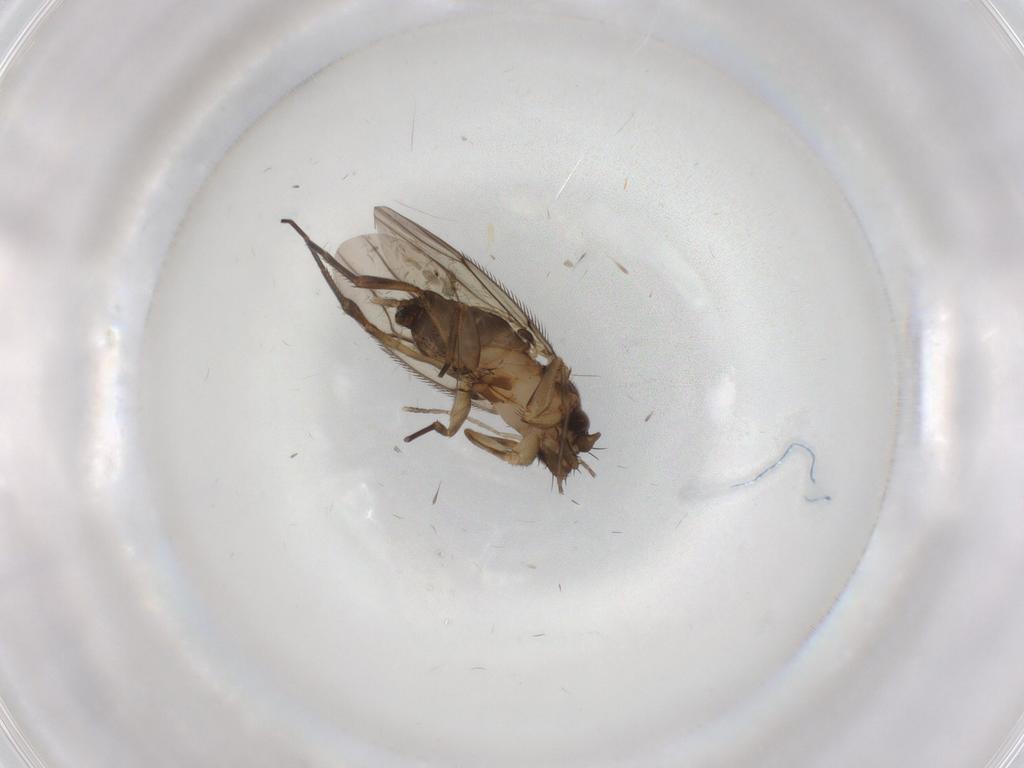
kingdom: Animalia
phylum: Arthropoda
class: Insecta
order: Diptera
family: Phoridae
